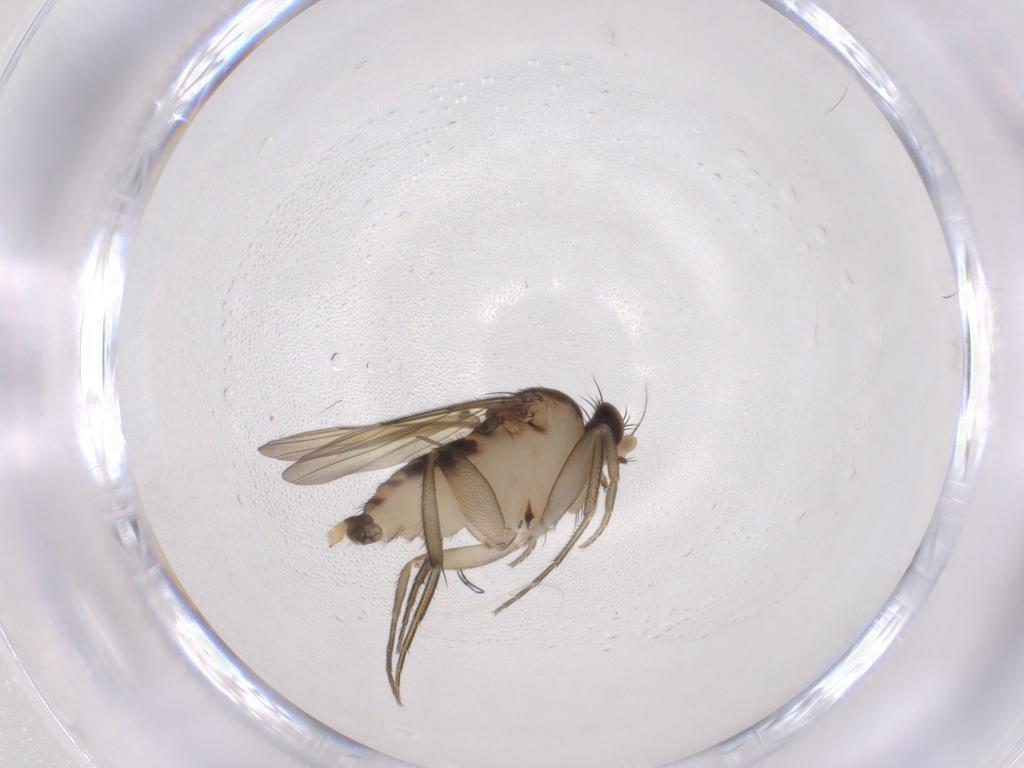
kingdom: Animalia
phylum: Arthropoda
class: Insecta
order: Diptera
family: Phoridae
